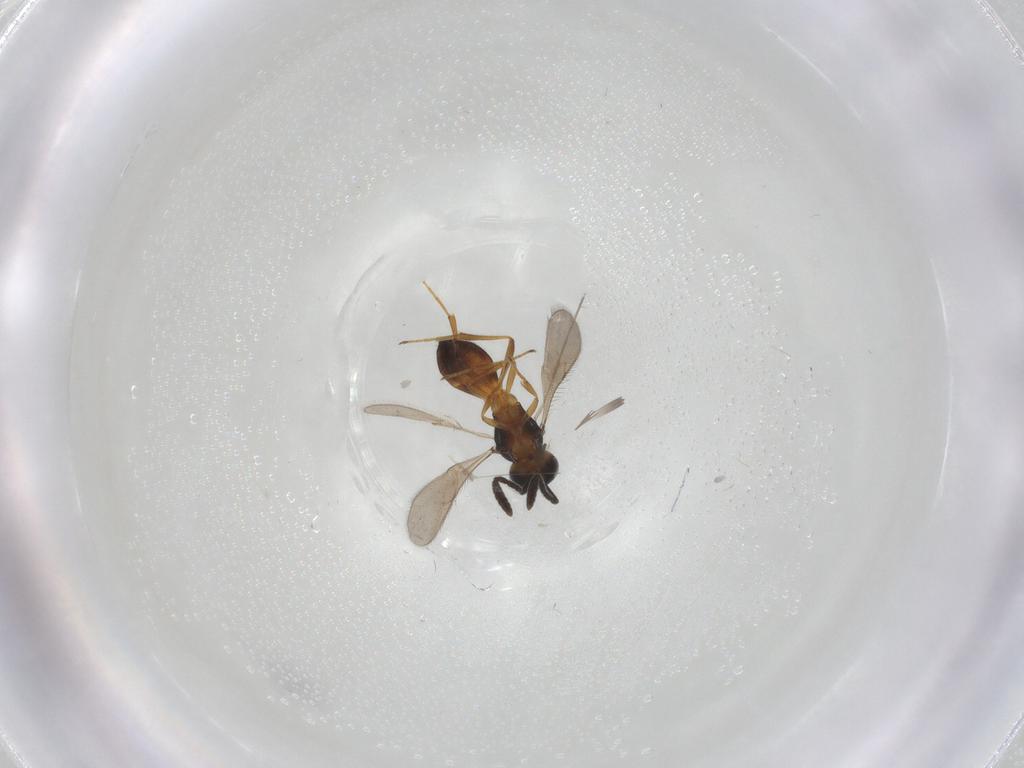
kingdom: Animalia
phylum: Arthropoda
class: Insecta
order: Hymenoptera
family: Scelionidae
